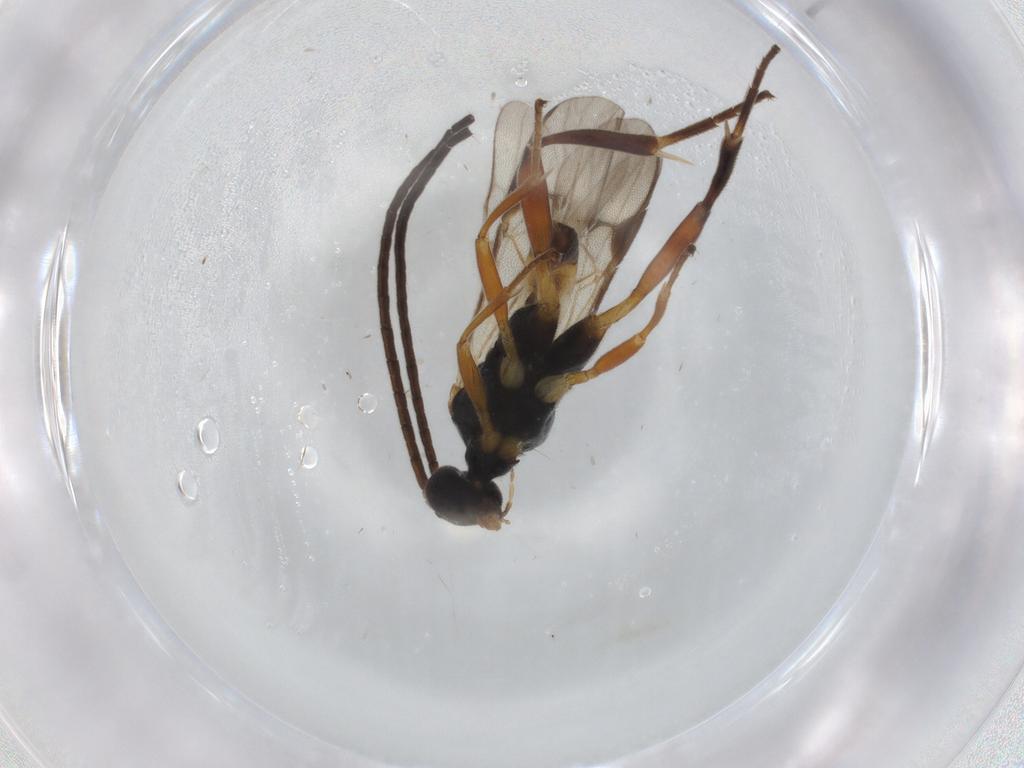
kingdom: Animalia
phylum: Arthropoda
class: Insecta
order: Hymenoptera
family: Braconidae
